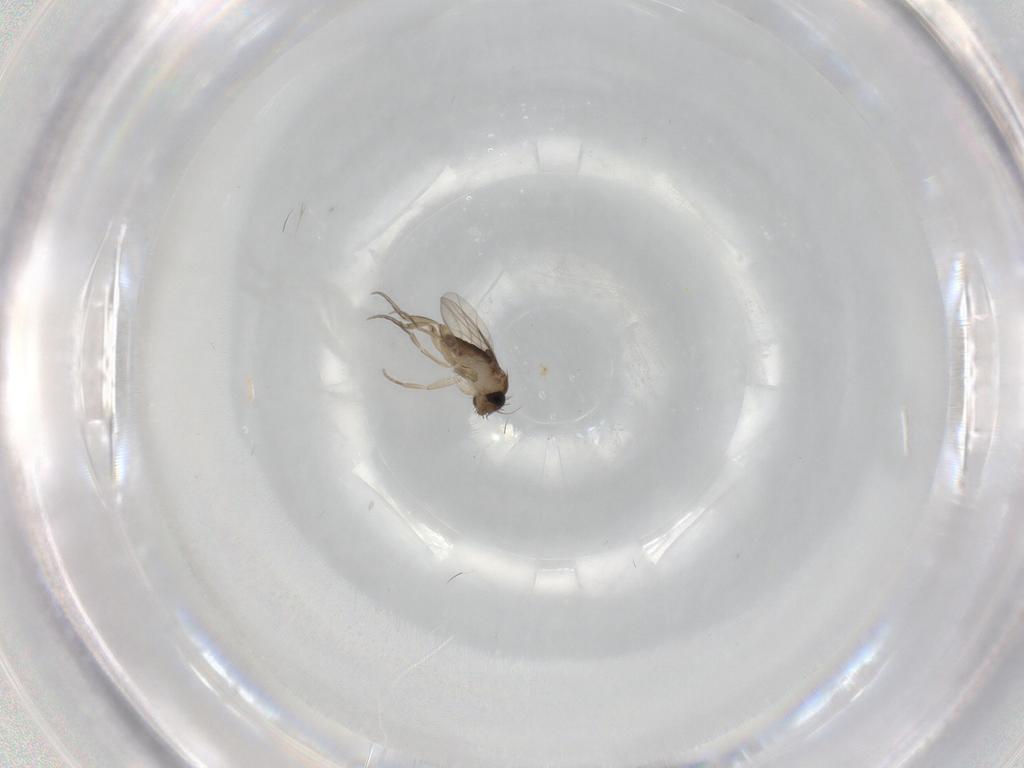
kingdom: Animalia
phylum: Arthropoda
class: Insecta
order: Diptera
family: Phoridae
